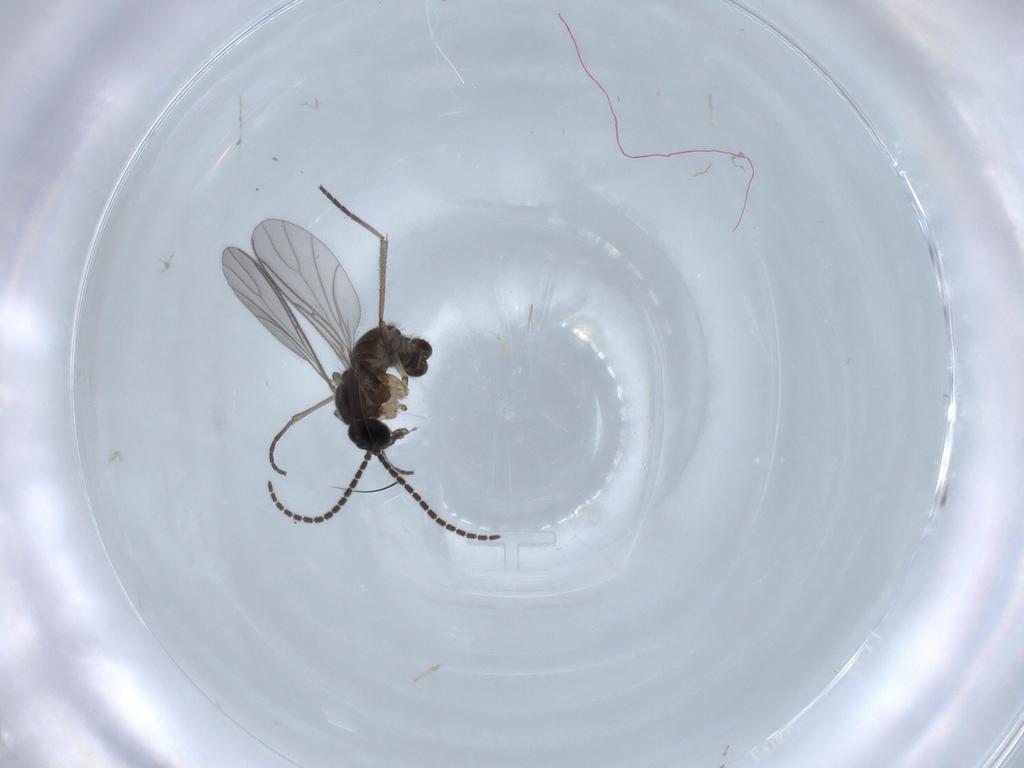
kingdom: Animalia
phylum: Arthropoda
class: Insecta
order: Diptera
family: Sciaridae
